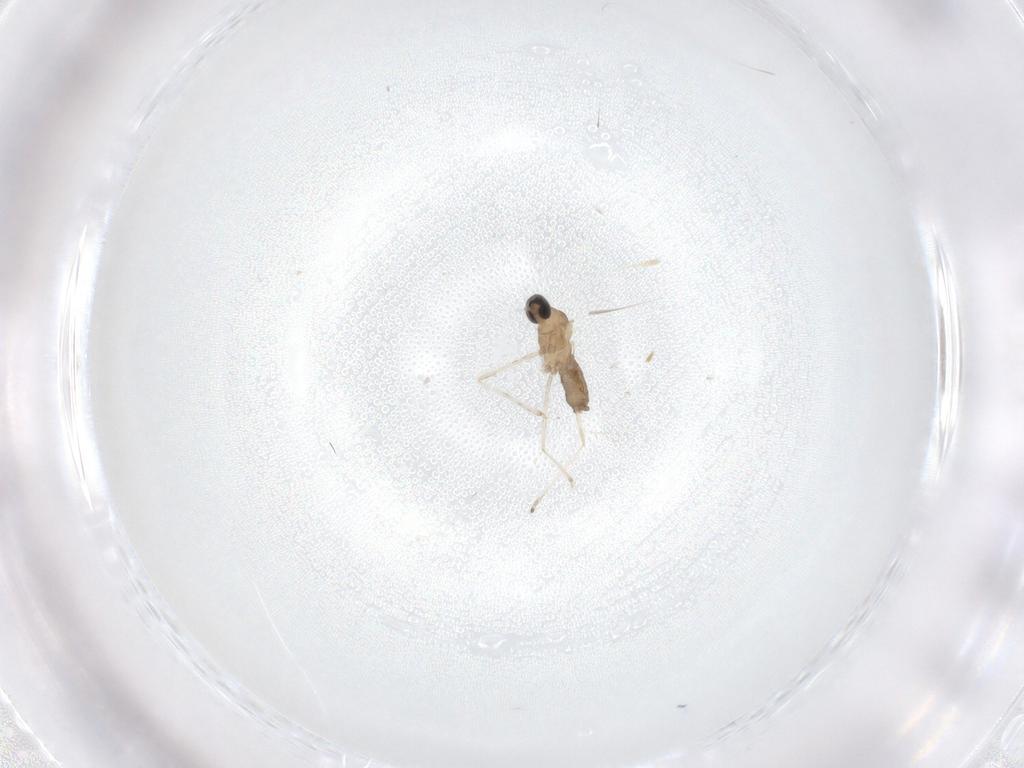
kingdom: Animalia
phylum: Arthropoda
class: Insecta
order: Diptera
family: Cecidomyiidae
